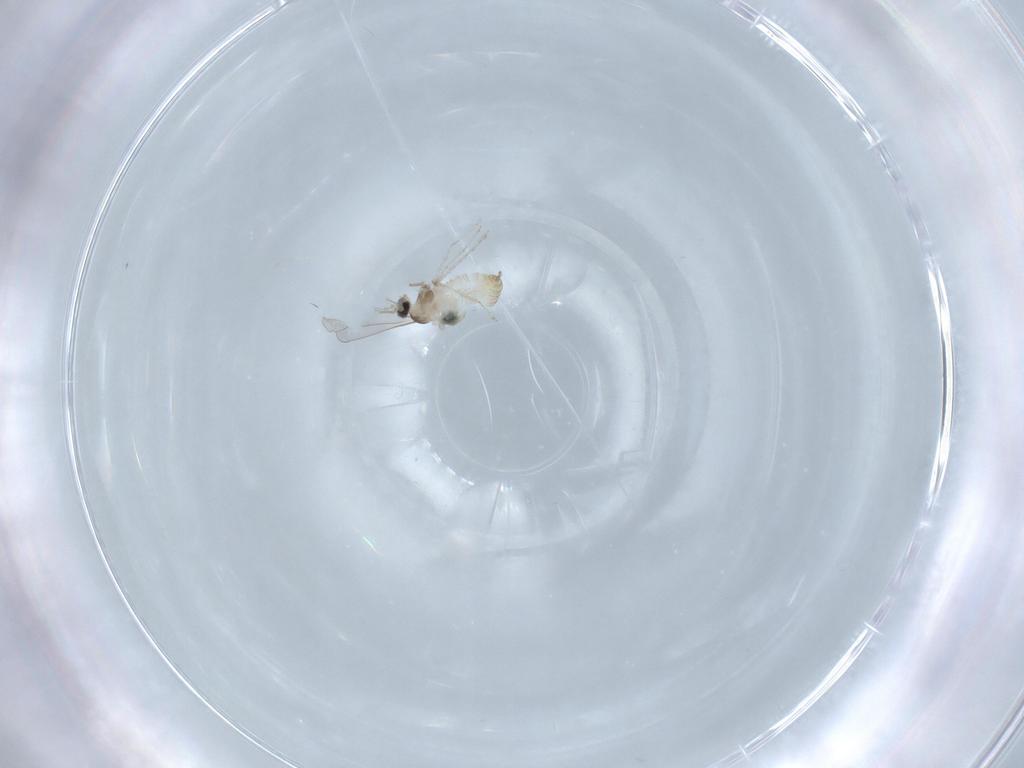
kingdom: Animalia
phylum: Arthropoda
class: Insecta
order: Diptera
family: Cecidomyiidae
